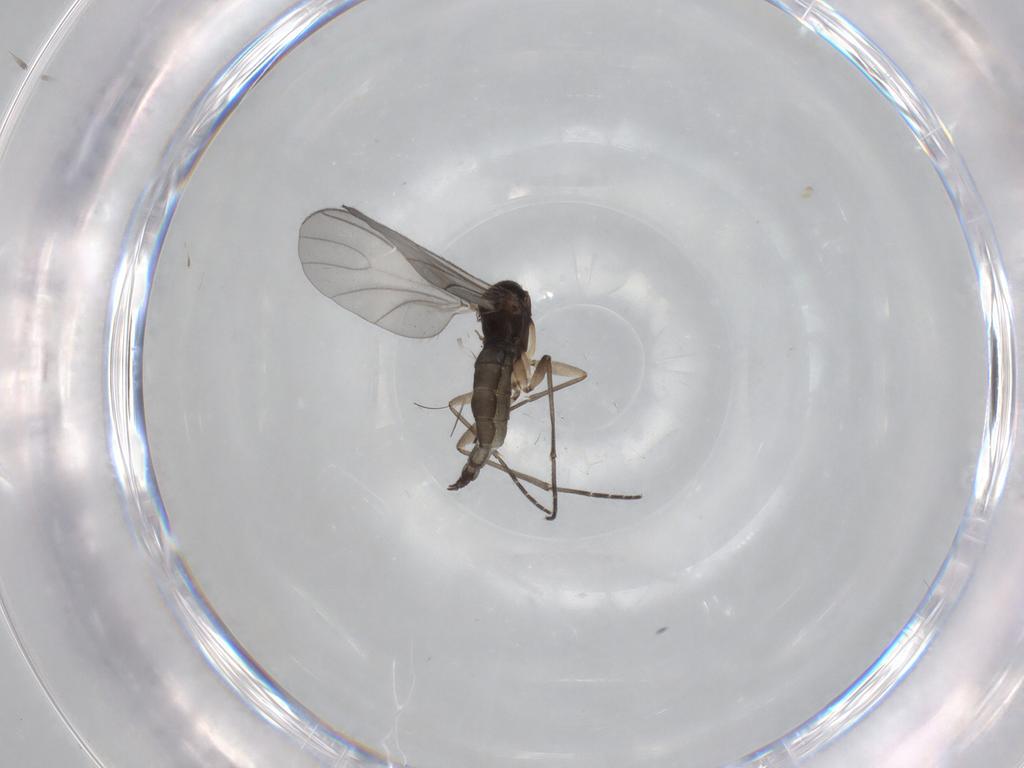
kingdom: Animalia
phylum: Arthropoda
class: Insecta
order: Diptera
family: Sciaridae
